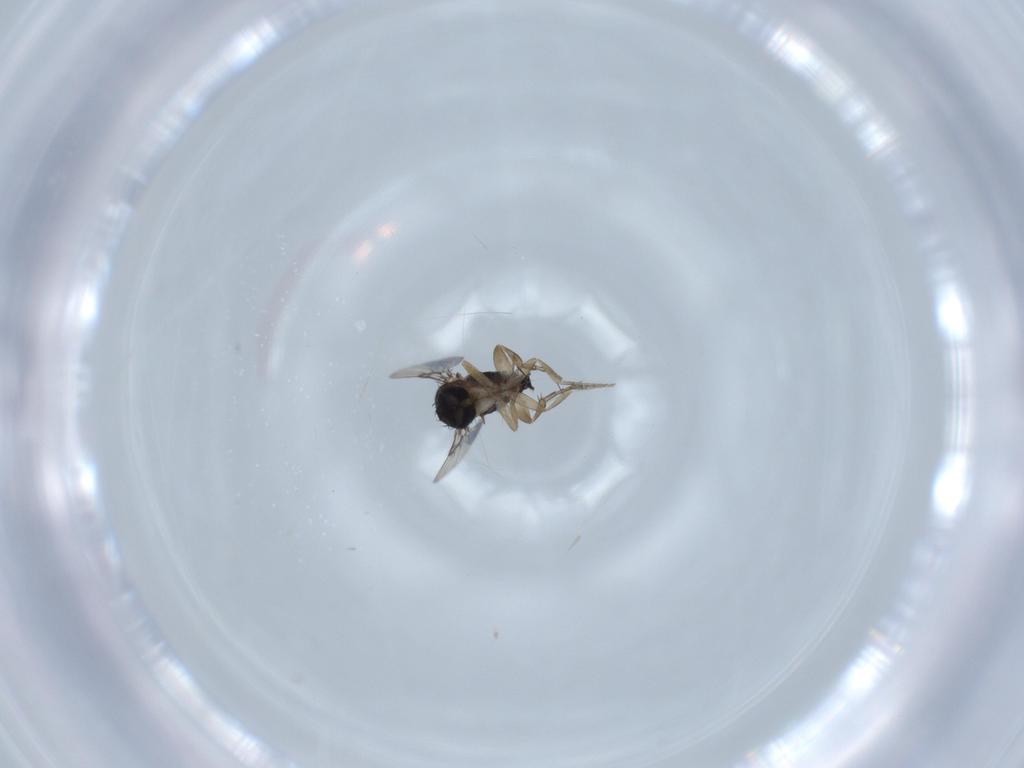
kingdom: Animalia
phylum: Arthropoda
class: Insecta
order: Diptera
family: Phoridae
